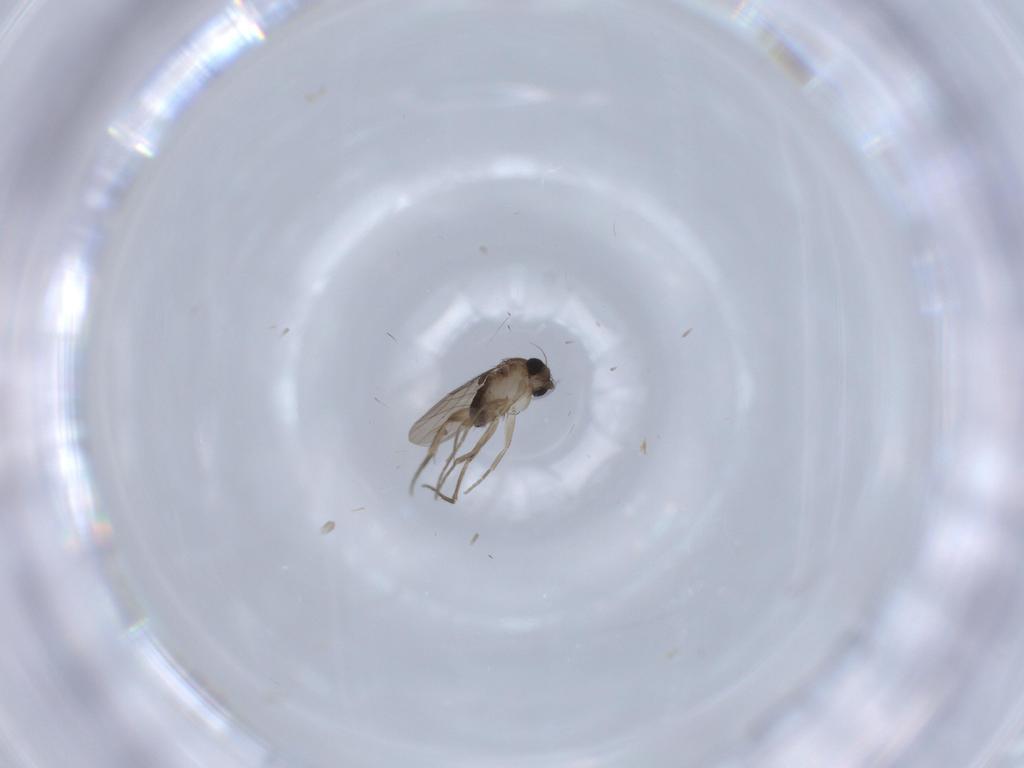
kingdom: Animalia
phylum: Arthropoda
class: Insecta
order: Diptera
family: Phoridae
